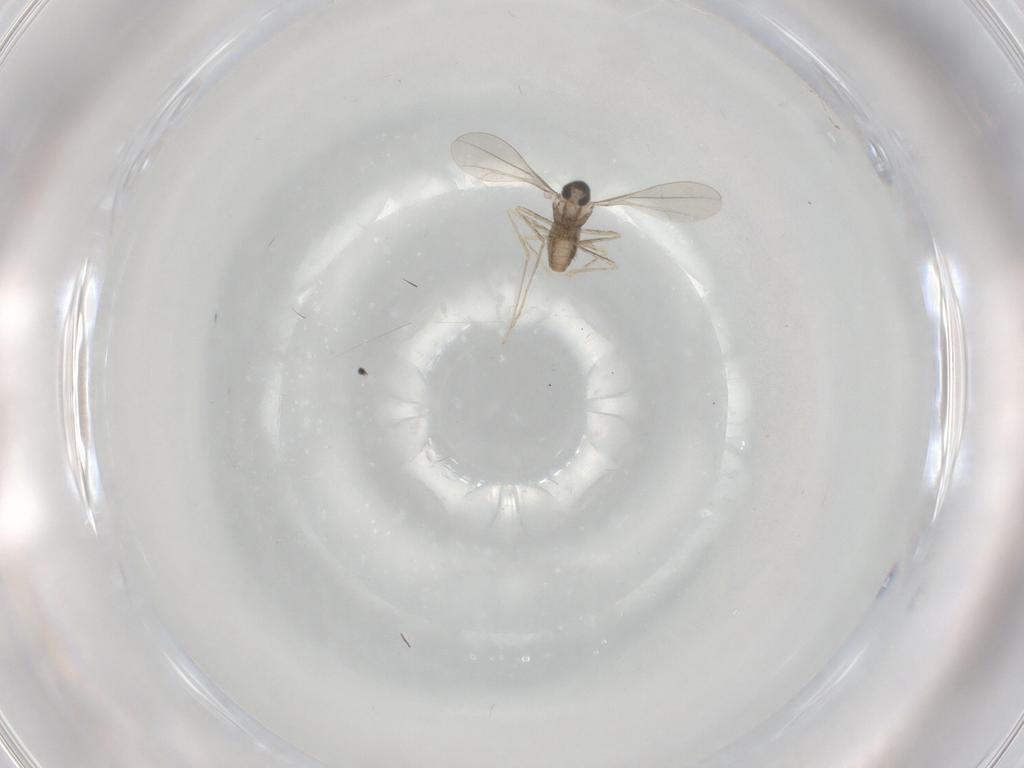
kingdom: Animalia
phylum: Arthropoda
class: Insecta
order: Diptera
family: Cecidomyiidae
